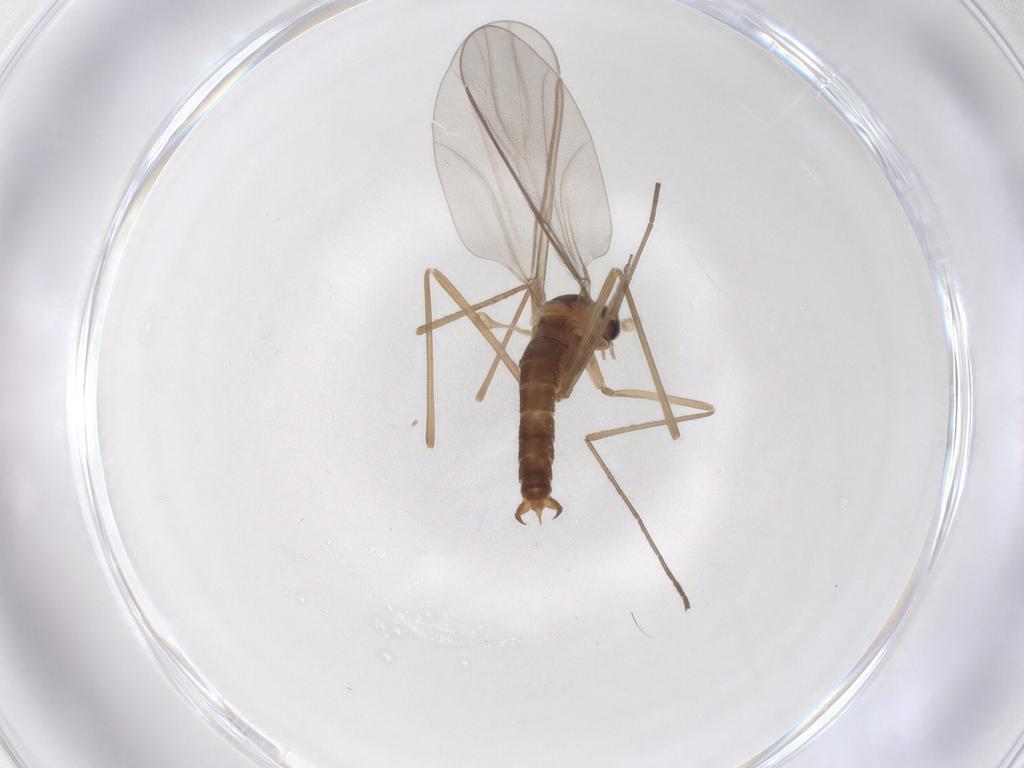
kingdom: Animalia
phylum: Arthropoda
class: Insecta
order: Diptera
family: Cecidomyiidae
